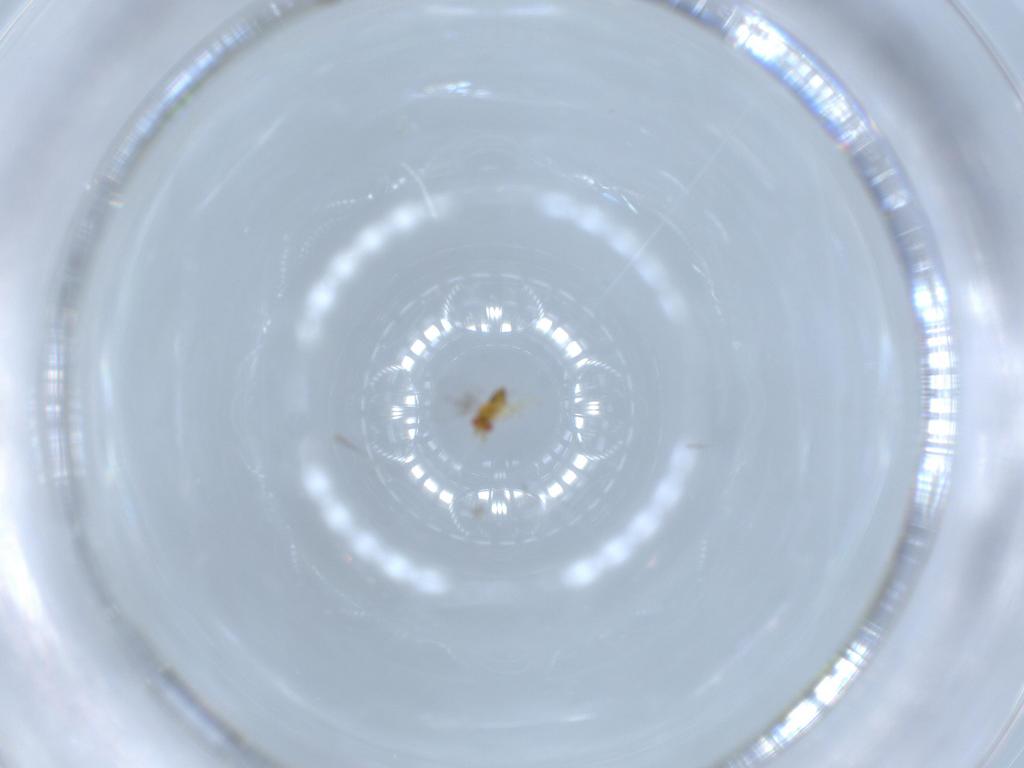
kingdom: Animalia
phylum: Arthropoda
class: Insecta
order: Hymenoptera
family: Trichogrammatidae
